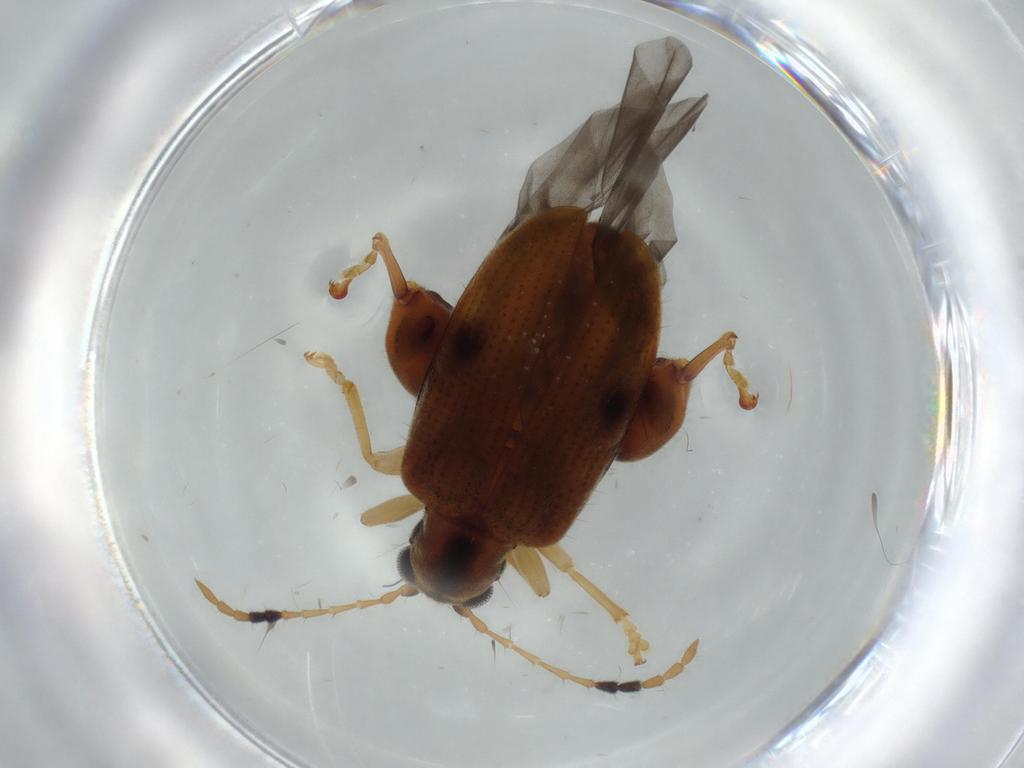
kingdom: Animalia
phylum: Arthropoda
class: Insecta
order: Coleoptera
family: Chrysomelidae
